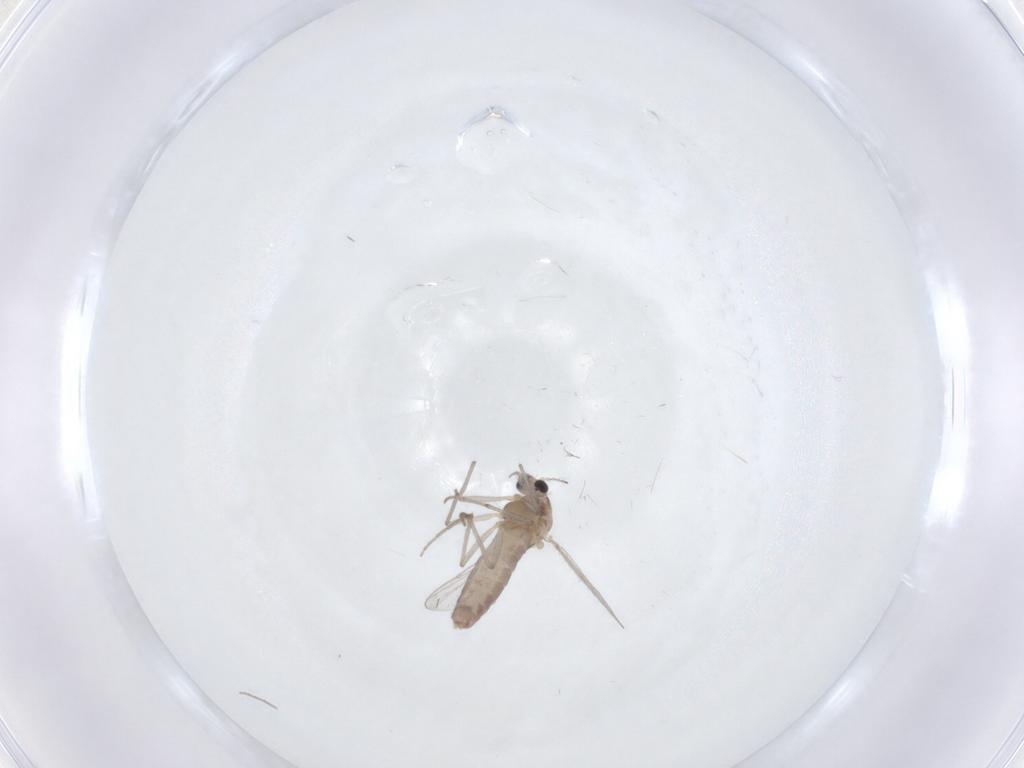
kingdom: Animalia
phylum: Arthropoda
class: Insecta
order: Diptera
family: Chironomidae
